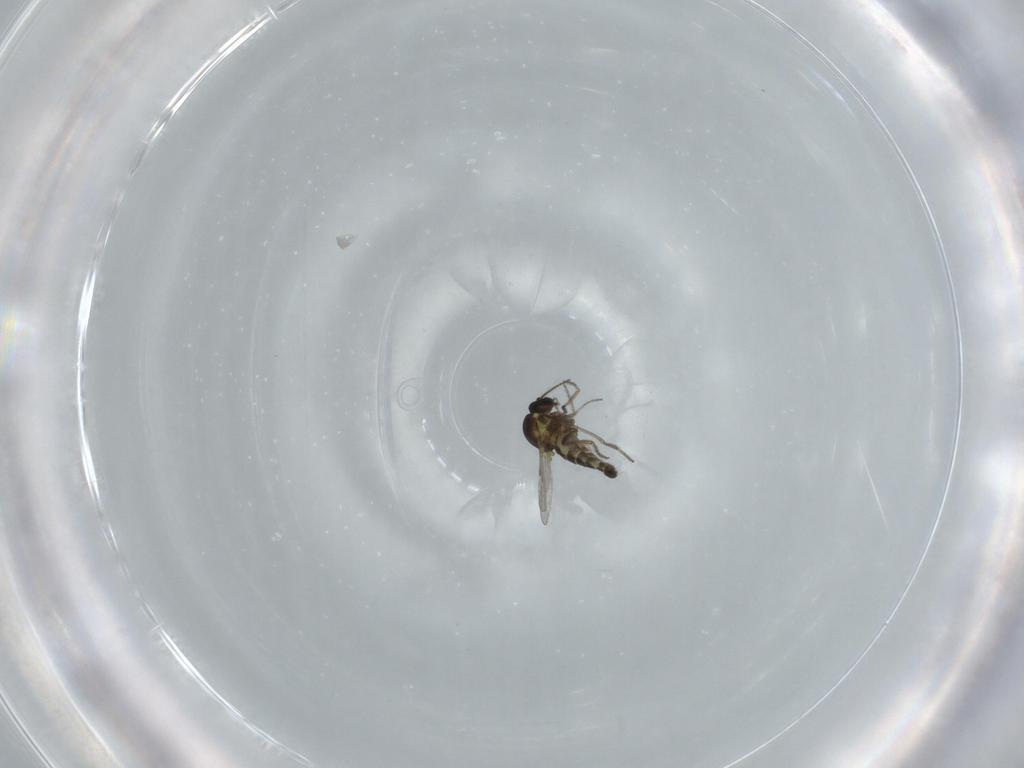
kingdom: Animalia
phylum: Arthropoda
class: Insecta
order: Diptera
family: Ceratopogonidae
